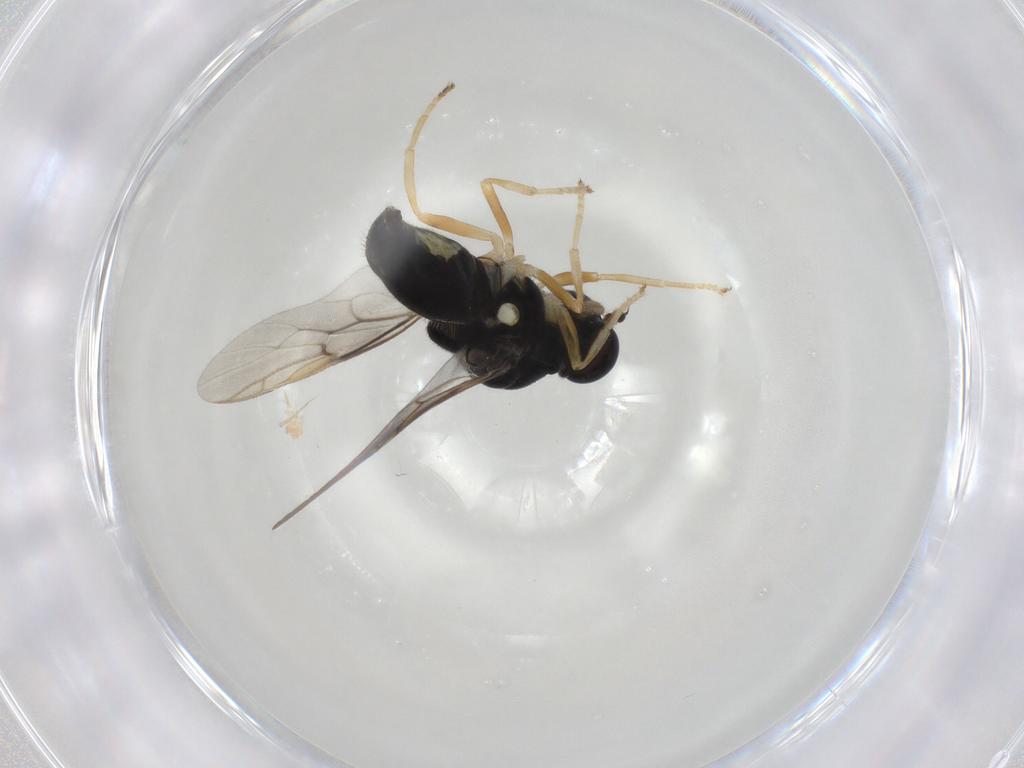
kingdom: Animalia
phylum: Arthropoda
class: Insecta
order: Diptera
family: Stratiomyidae
